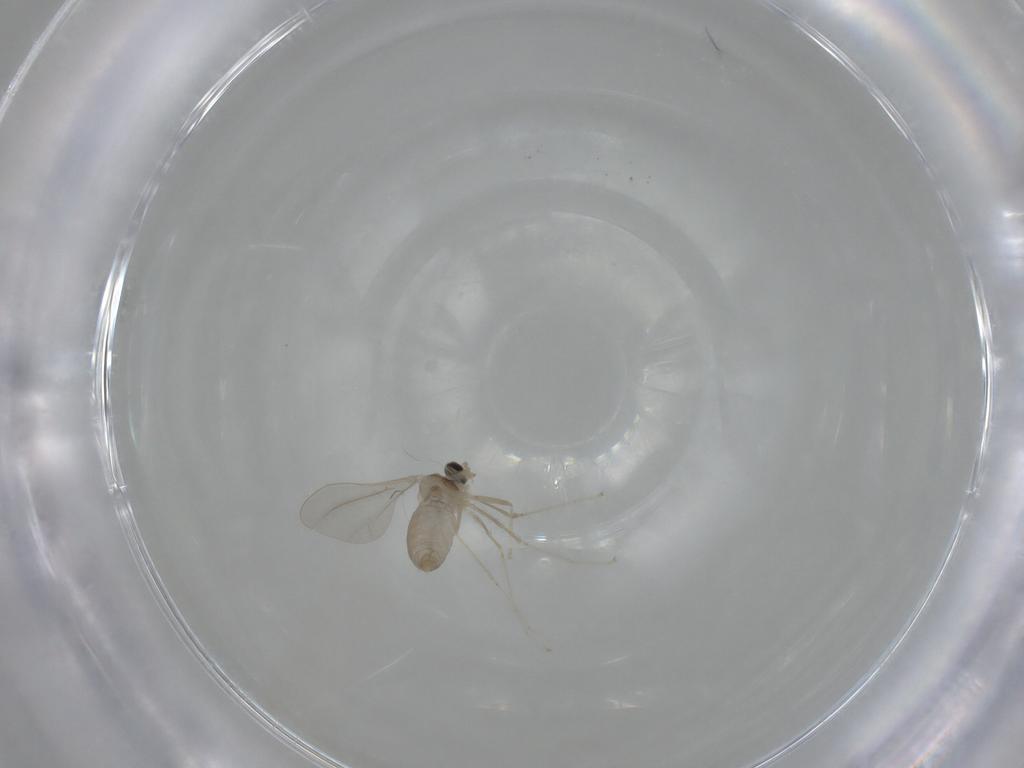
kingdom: Animalia
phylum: Arthropoda
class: Insecta
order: Diptera
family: Cecidomyiidae
